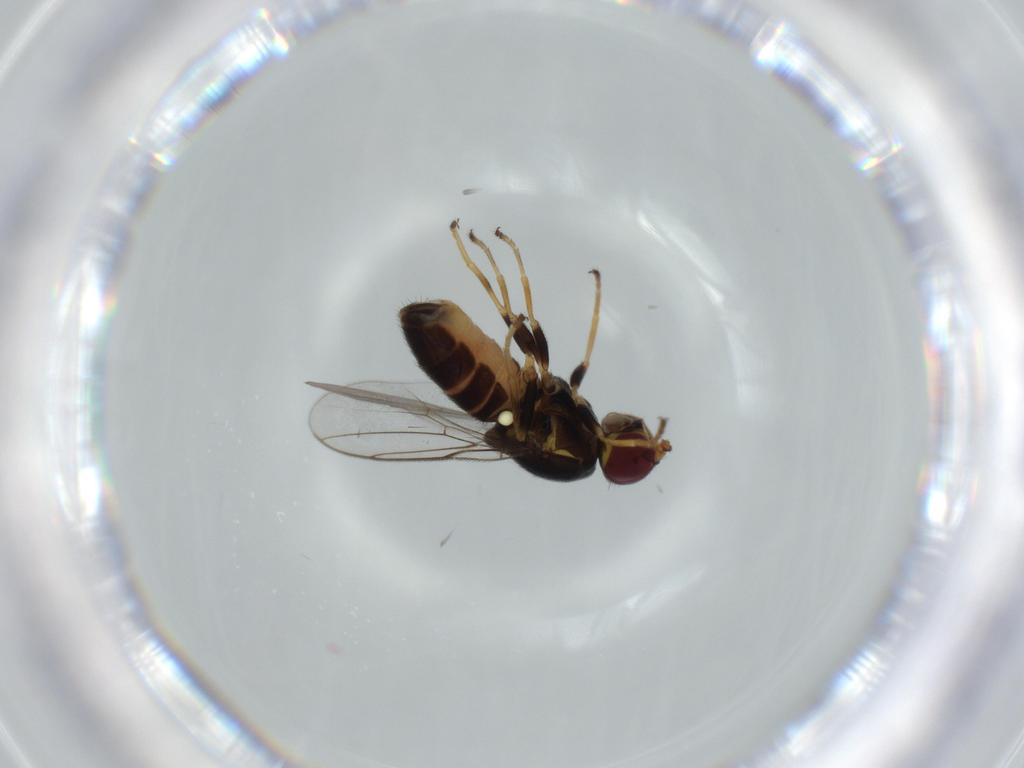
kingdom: Animalia
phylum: Arthropoda
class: Insecta
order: Diptera
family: Chloropidae
